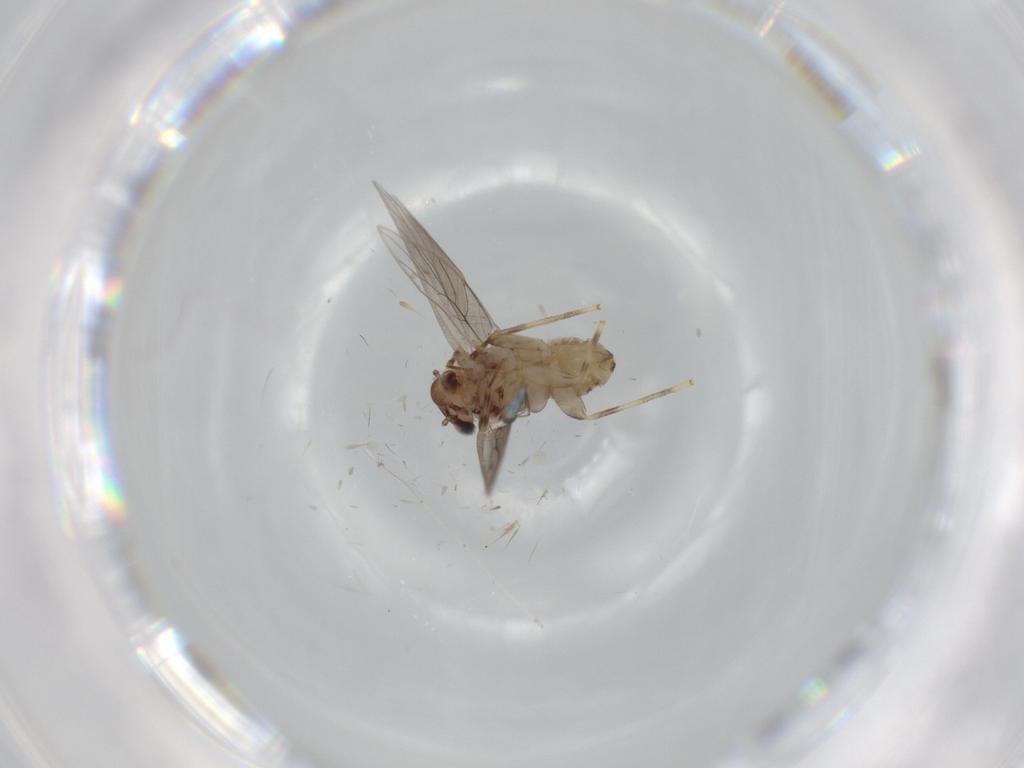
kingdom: Animalia
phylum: Arthropoda
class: Insecta
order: Psocodea
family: Lepidopsocidae
